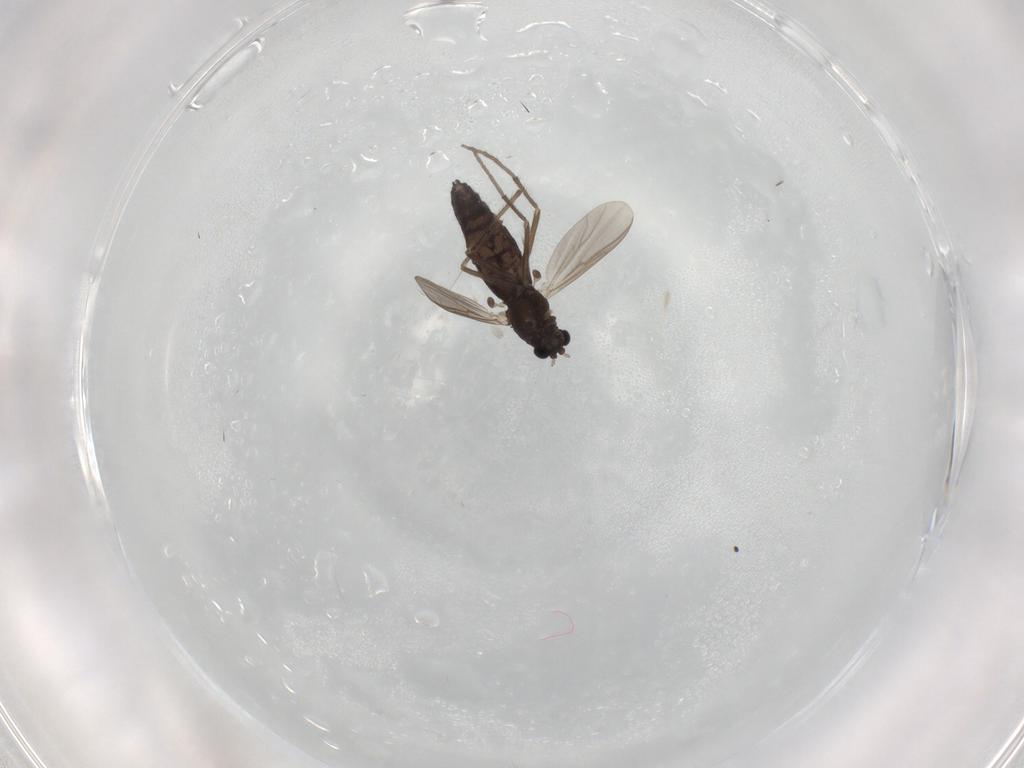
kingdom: Animalia
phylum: Arthropoda
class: Insecta
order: Diptera
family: Chironomidae
